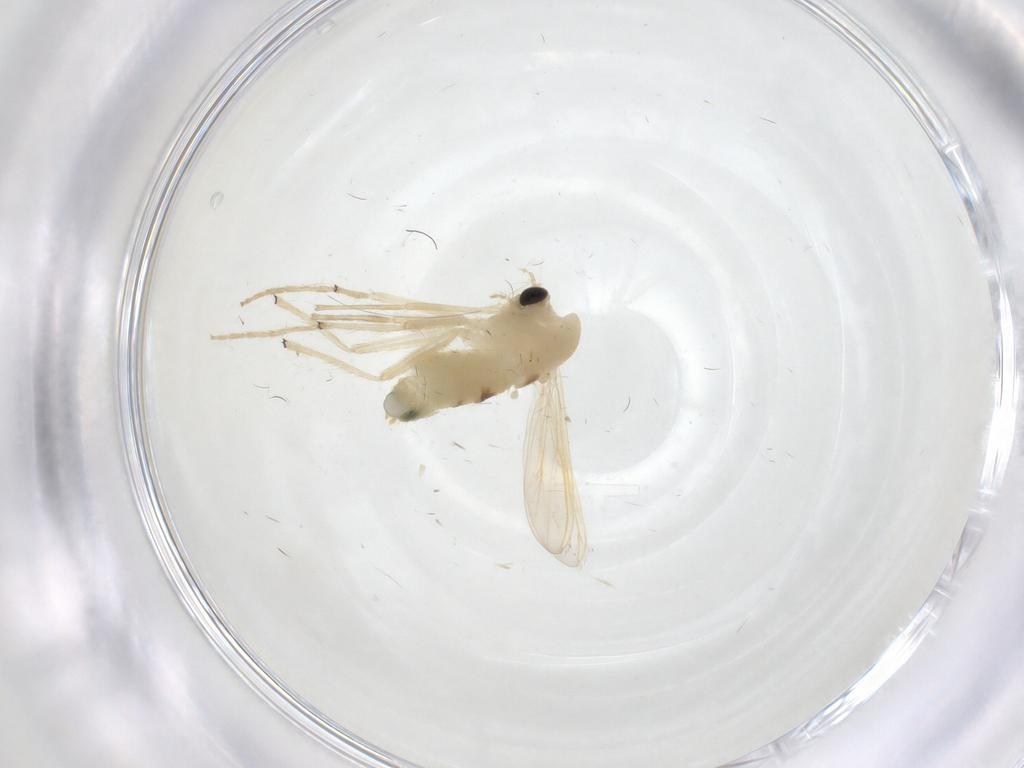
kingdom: Animalia
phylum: Arthropoda
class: Insecta
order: Diptera
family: Chironomidae
